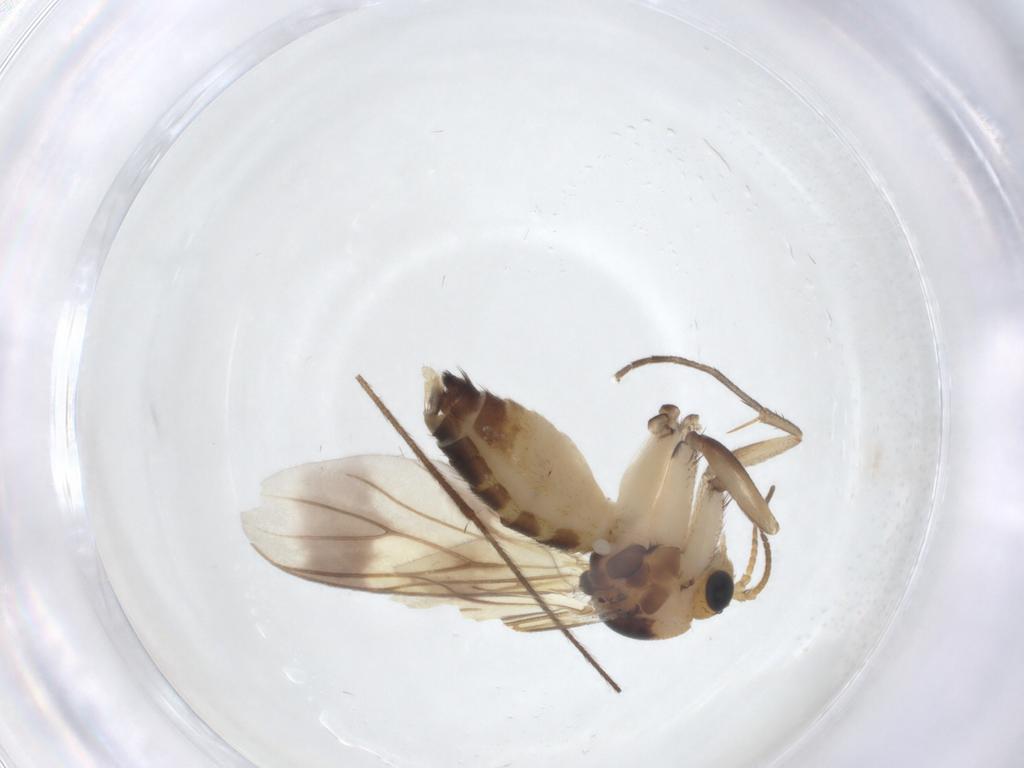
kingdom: Animalia
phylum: Arthropoda
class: Insecta
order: Diptera
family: Mycetophilidae
